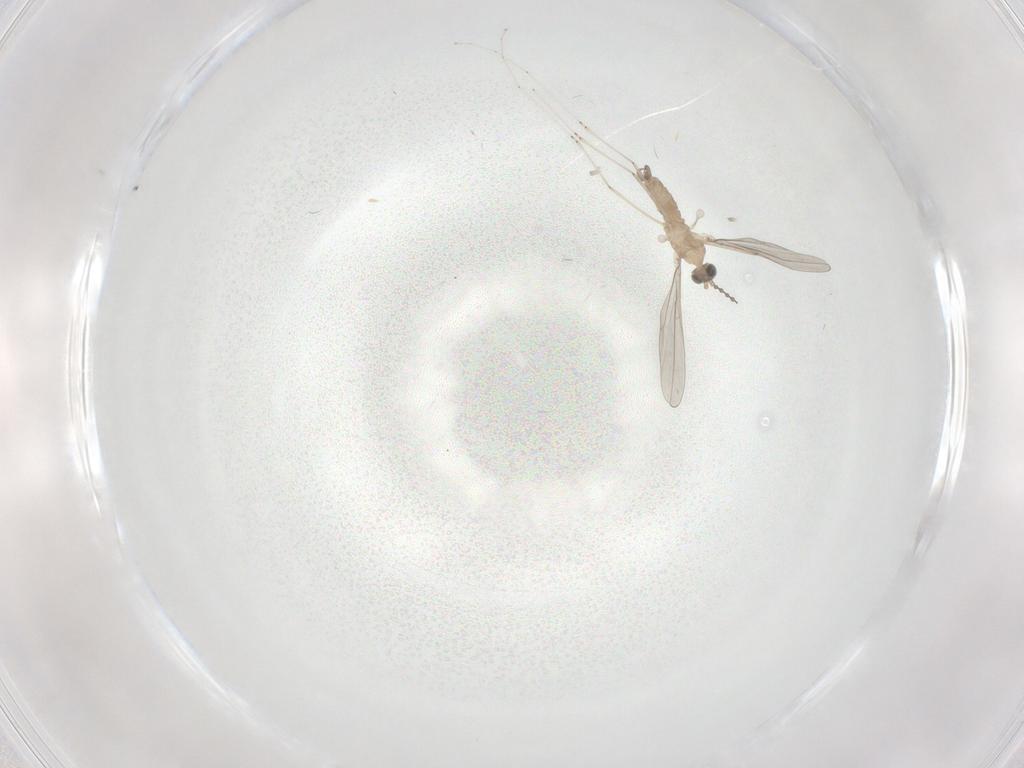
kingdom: Animalia
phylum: Arthropoda
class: Insecta
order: Diptera
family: Cecidomyiidae
